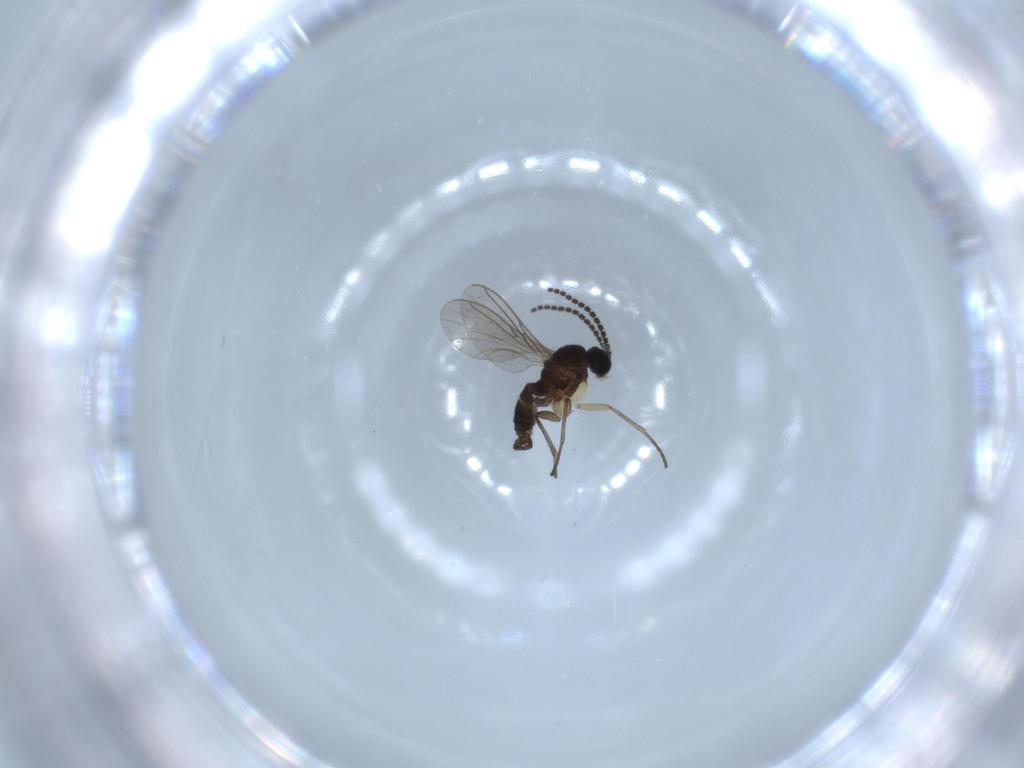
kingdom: Animalia
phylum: Arthropoda
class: Insecta
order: Diptera
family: Sciaridae
